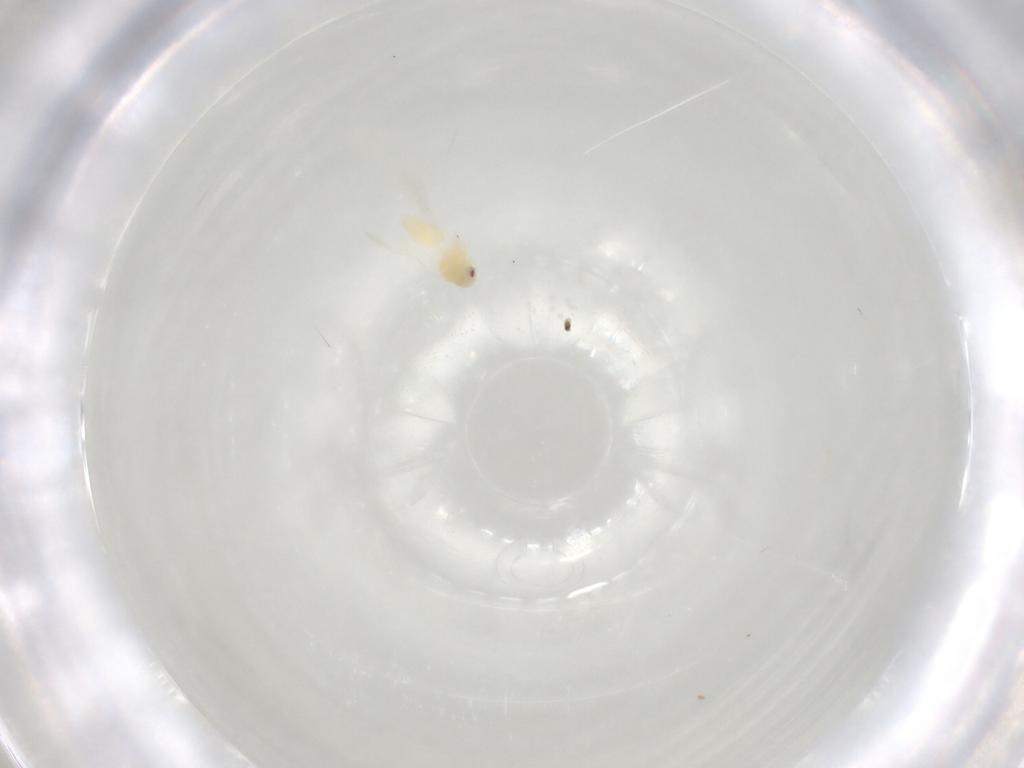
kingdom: Animalia
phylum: Arthropoda
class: Insecta
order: Hemiptera
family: Aleyrodidae
